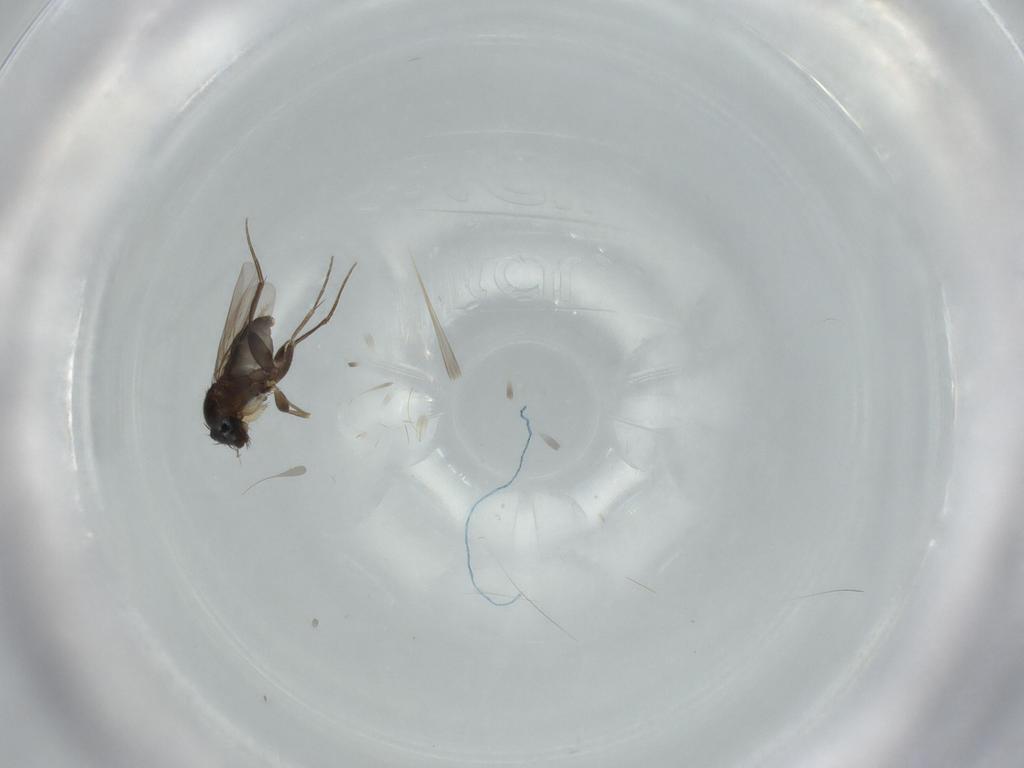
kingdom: Animalia
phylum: Arthropoda
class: Insecta
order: Diptera
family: Phoridae
